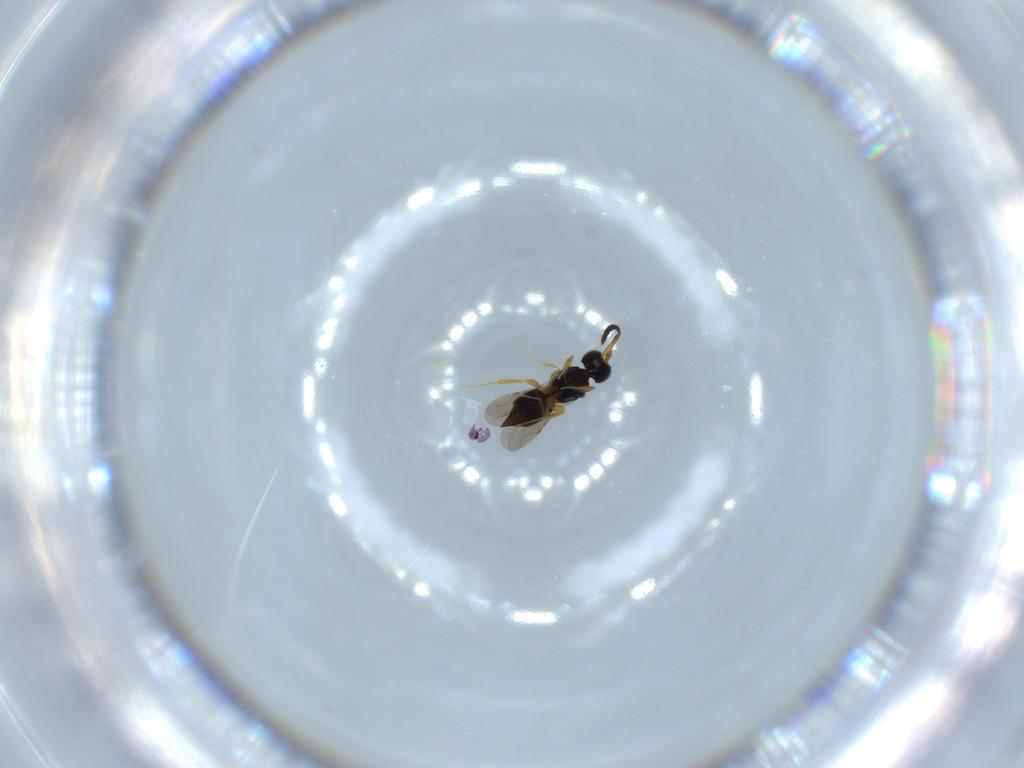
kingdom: Animalia
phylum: Arthropoda
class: Insecta
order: Hymenoptera
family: Platygastridae
